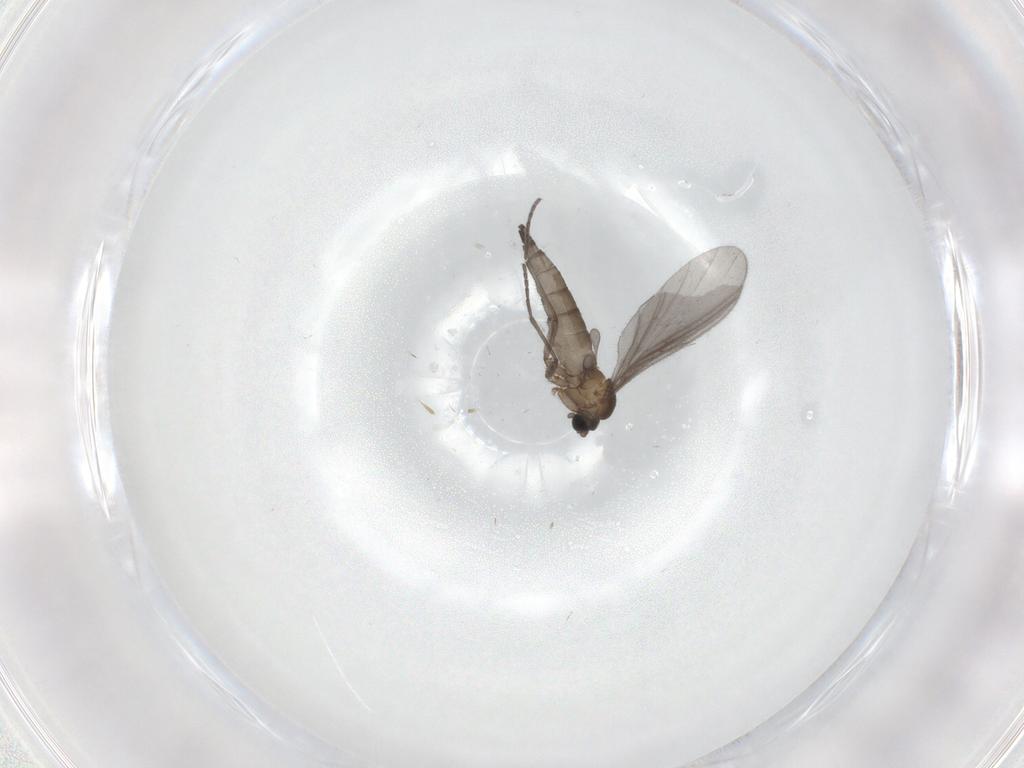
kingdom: Animalia
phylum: Arthropoda
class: Insecta
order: Diptera
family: Sciaridae
